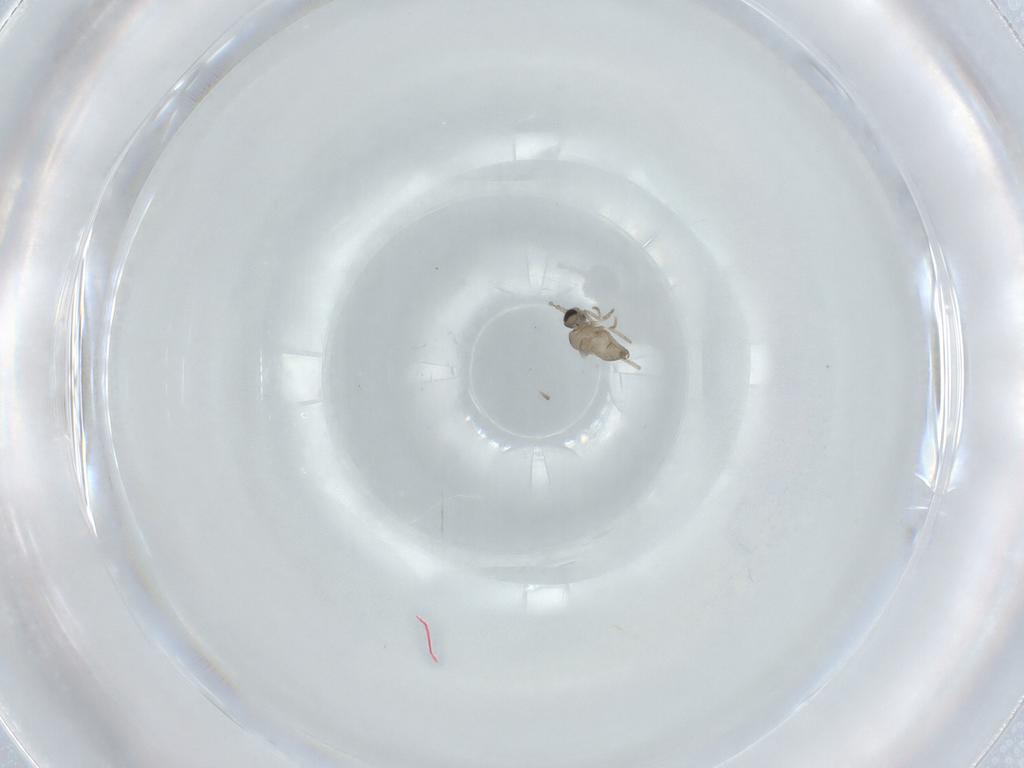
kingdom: Animalia
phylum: Arthropoda
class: Insecta
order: Diptera
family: Cecidomyiidae
